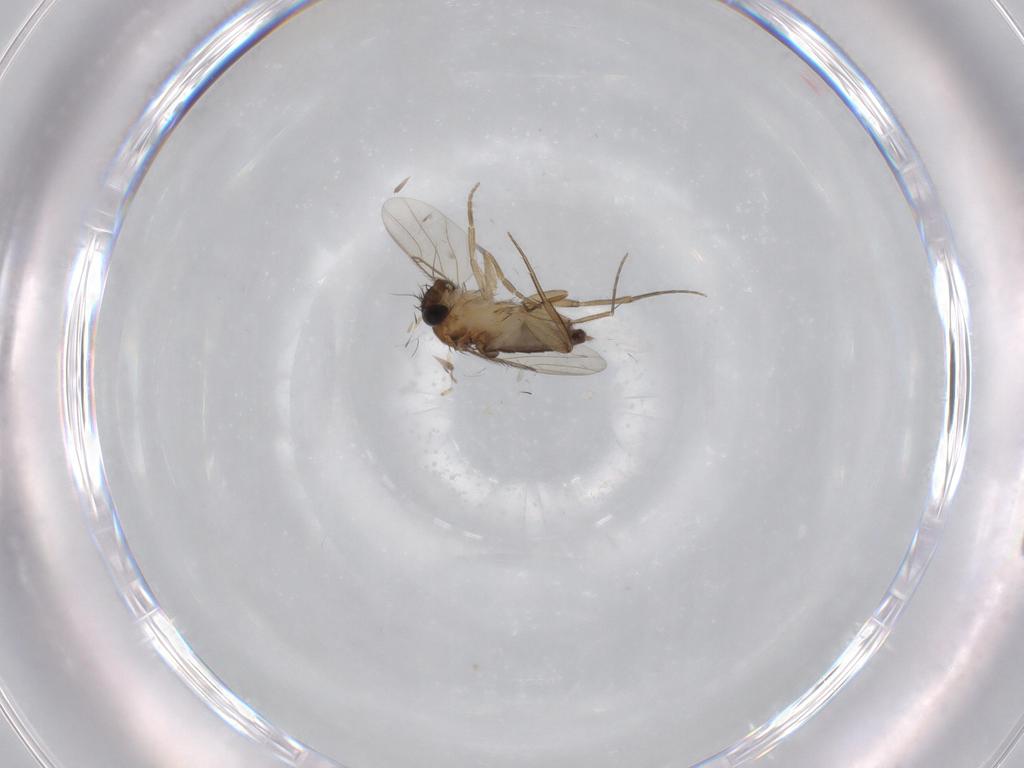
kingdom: Animalia
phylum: Arthropoda
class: Insecta
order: Diptera
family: Phoridae
